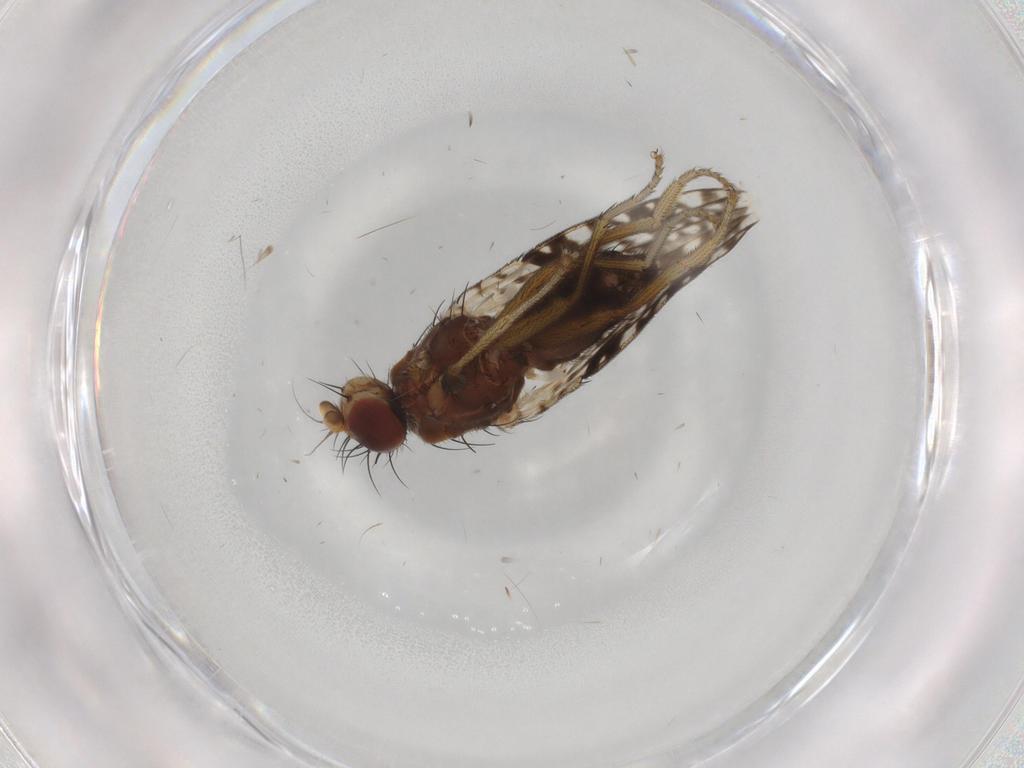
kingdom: Animalia
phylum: Arthropoda
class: Insecta
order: Diptera
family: Tephritidae
